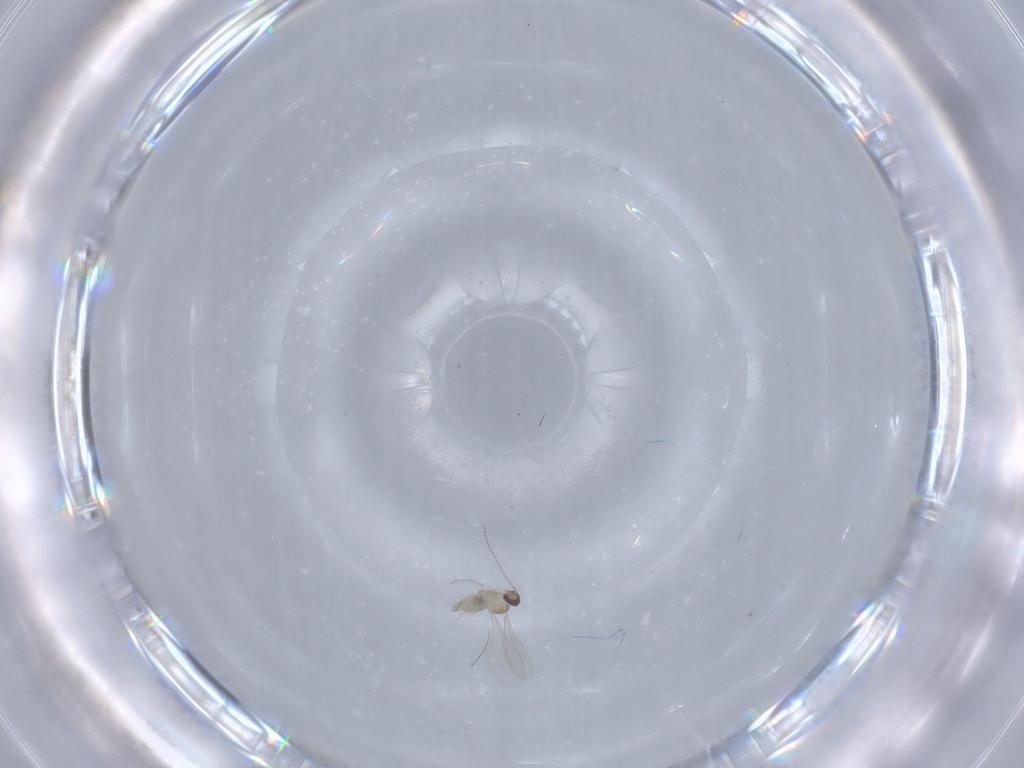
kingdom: Animalia
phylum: Arthropoda
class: Insecta
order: Diptera
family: Cecidomyiidae
